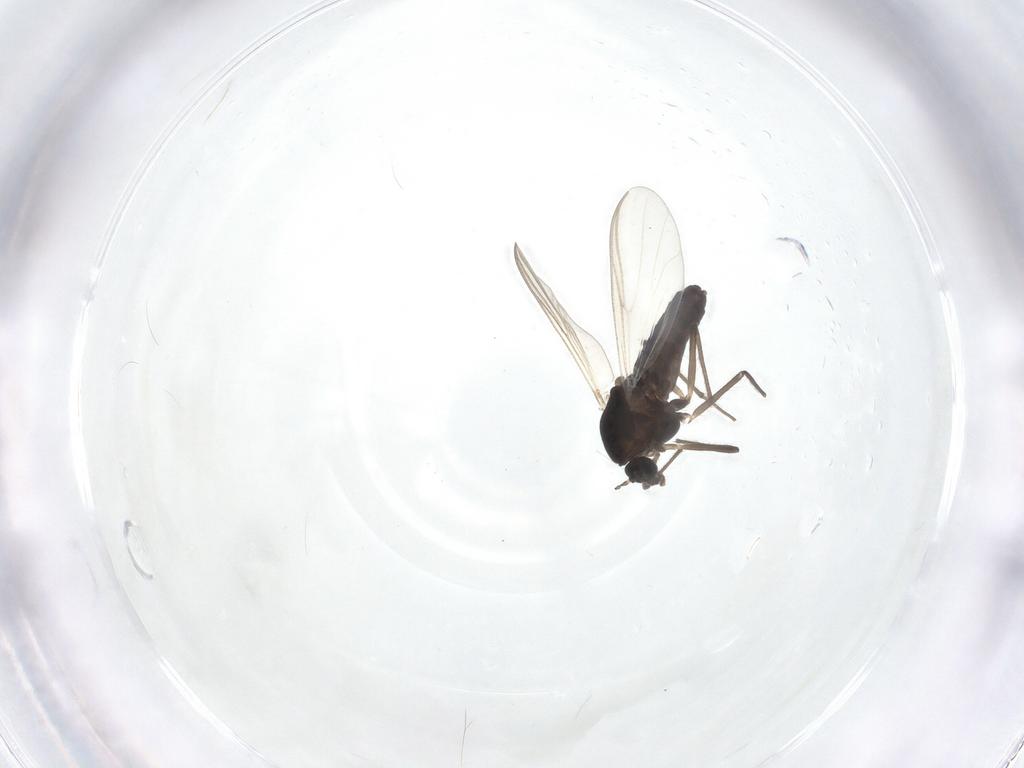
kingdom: Animalia
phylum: Arthropoda
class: Insecta
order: Diptera
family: Chironomidae
